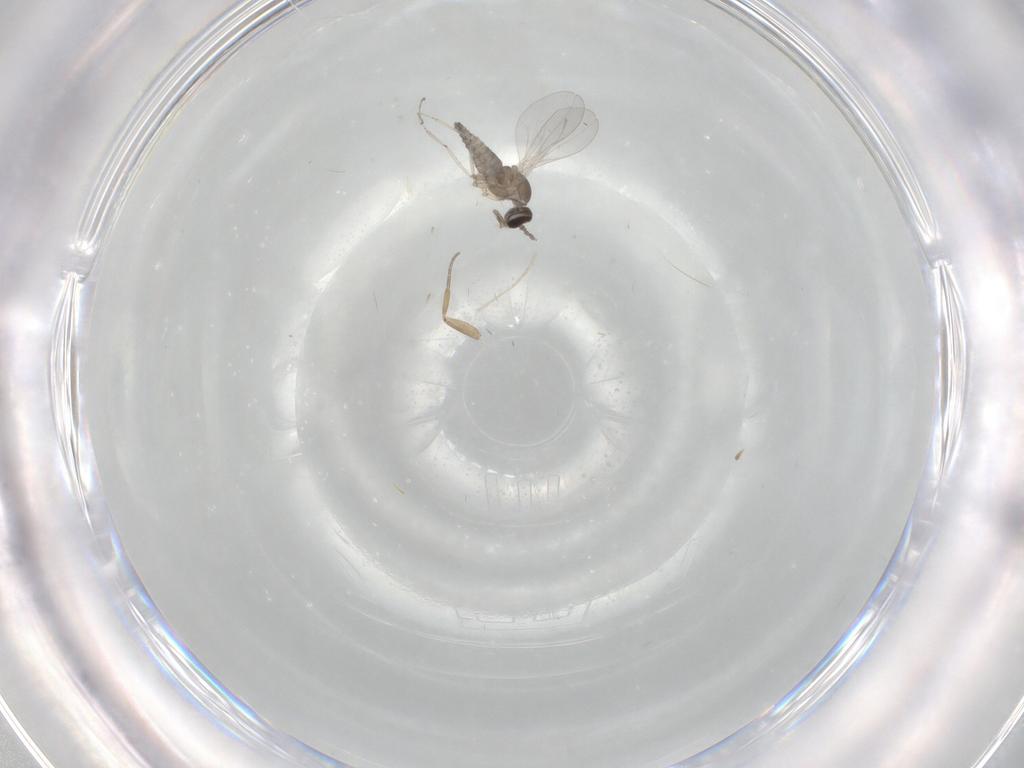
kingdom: Animalia
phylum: Arthropoda
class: Insecta
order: Diptera
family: Cecidomyiidae
